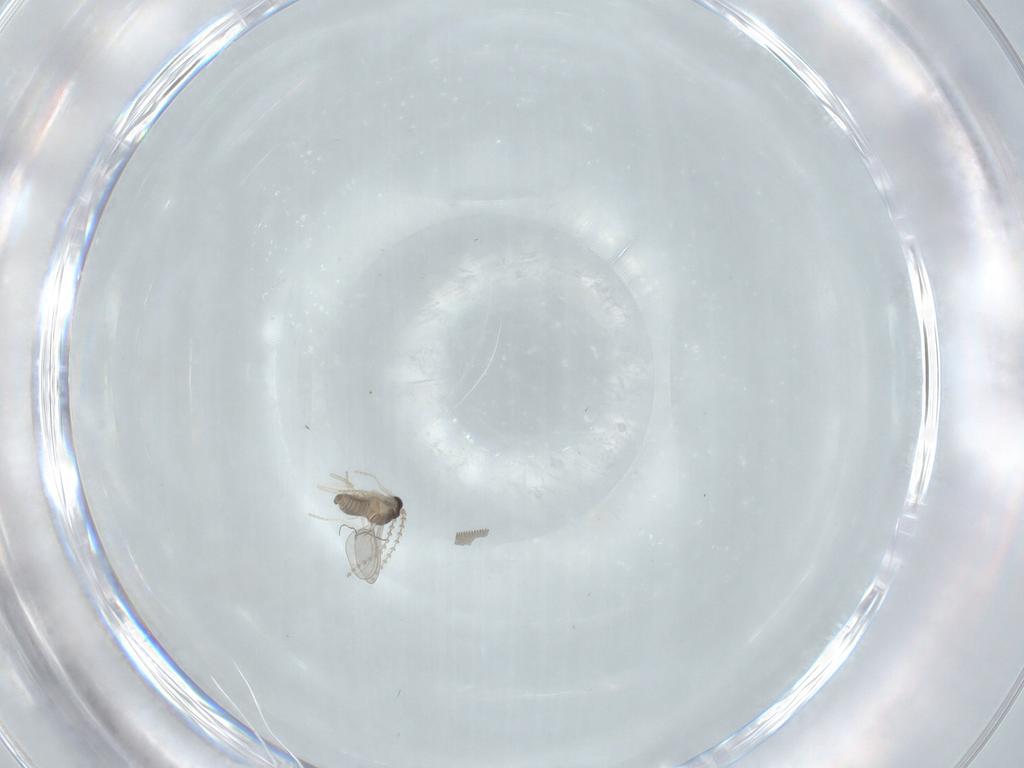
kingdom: Animalia
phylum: Arthropoda
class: Insecta
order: Diptera
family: Cecidomyiidae
